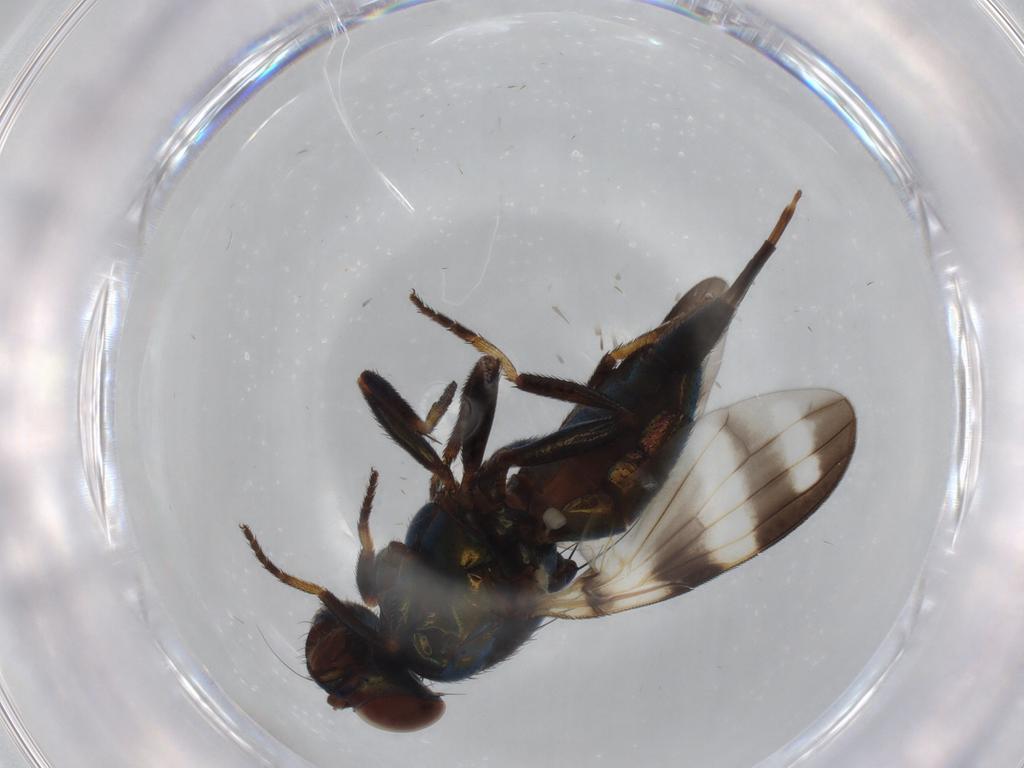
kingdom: Animalia
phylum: Arthropoda
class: Insecta
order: Diptera
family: Ulidiidae
